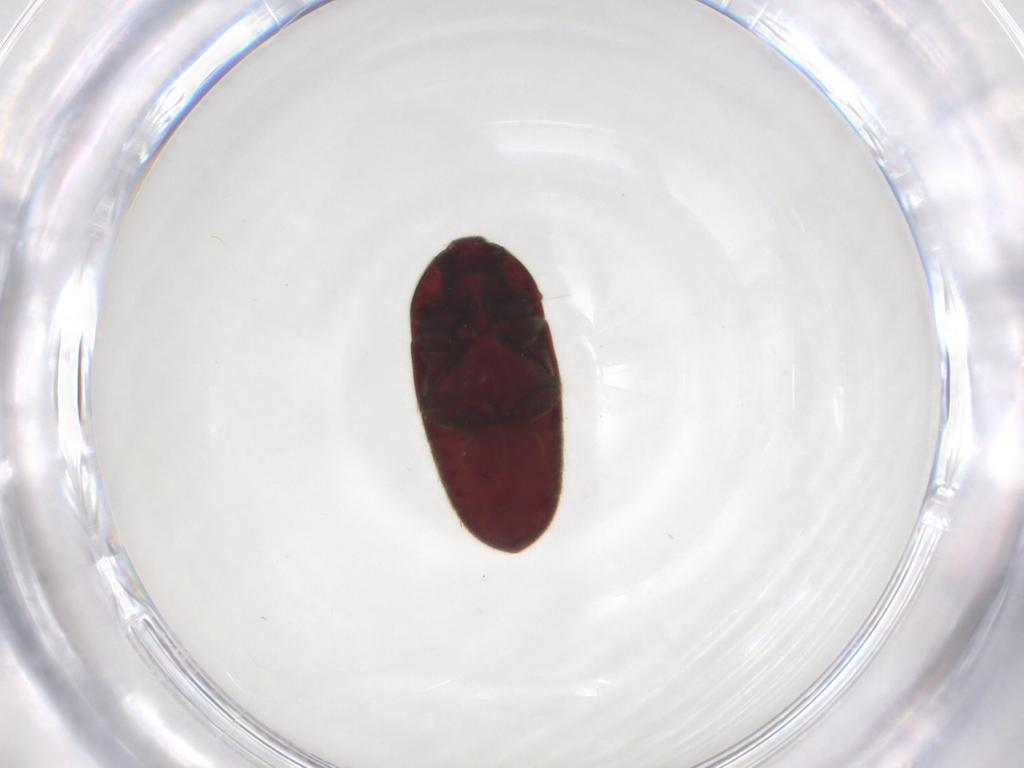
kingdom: Animalia
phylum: Arthropoda
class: Insecta
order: Coleoptera
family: Throscidae
